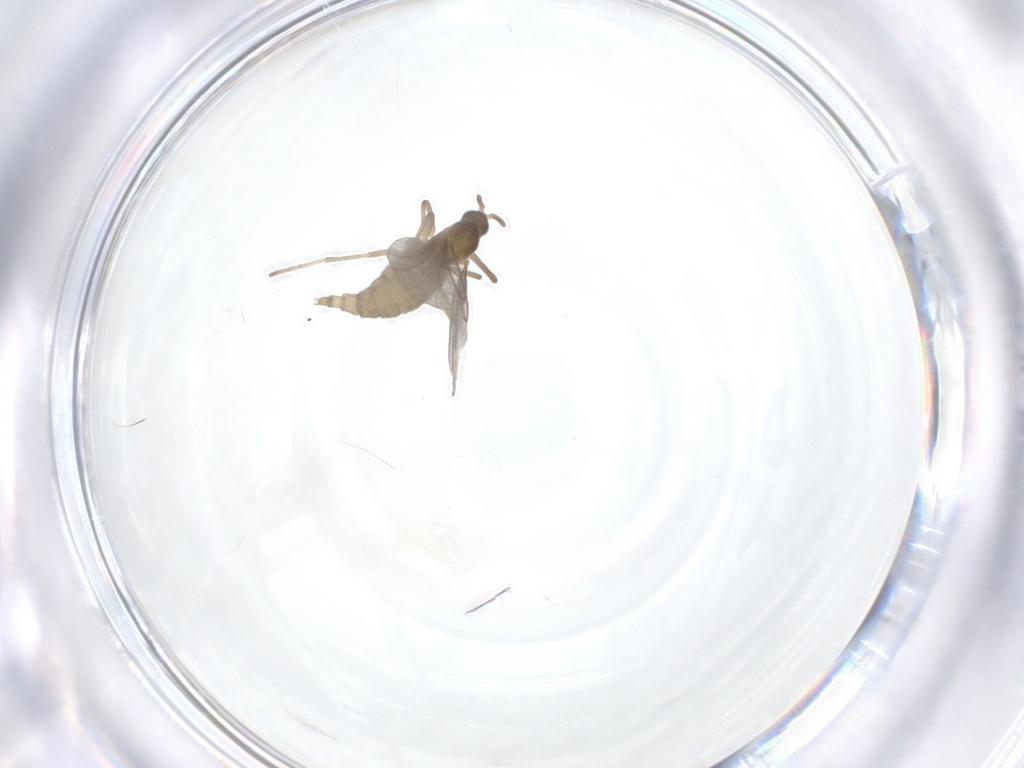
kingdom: Animalia
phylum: Arthropoda
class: Insecta
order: Diptera
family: Cecidomyiidae
